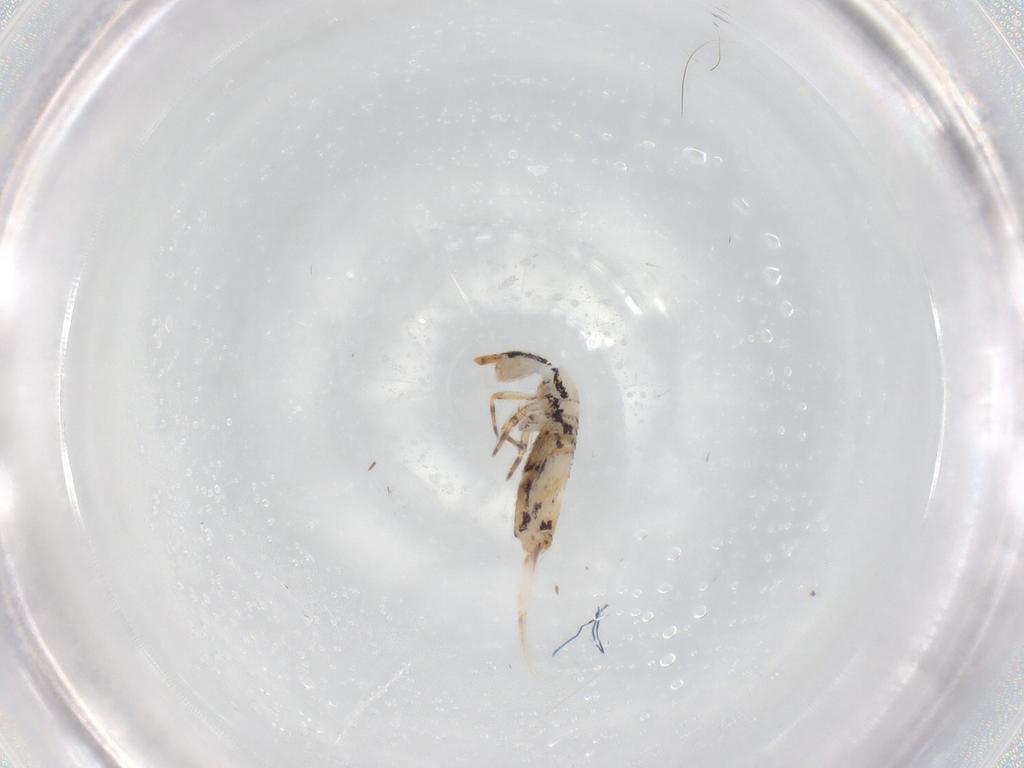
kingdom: Animalia
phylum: Arthropoda
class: Collembola
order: Entomobryomorpha
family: Entomobryidae
